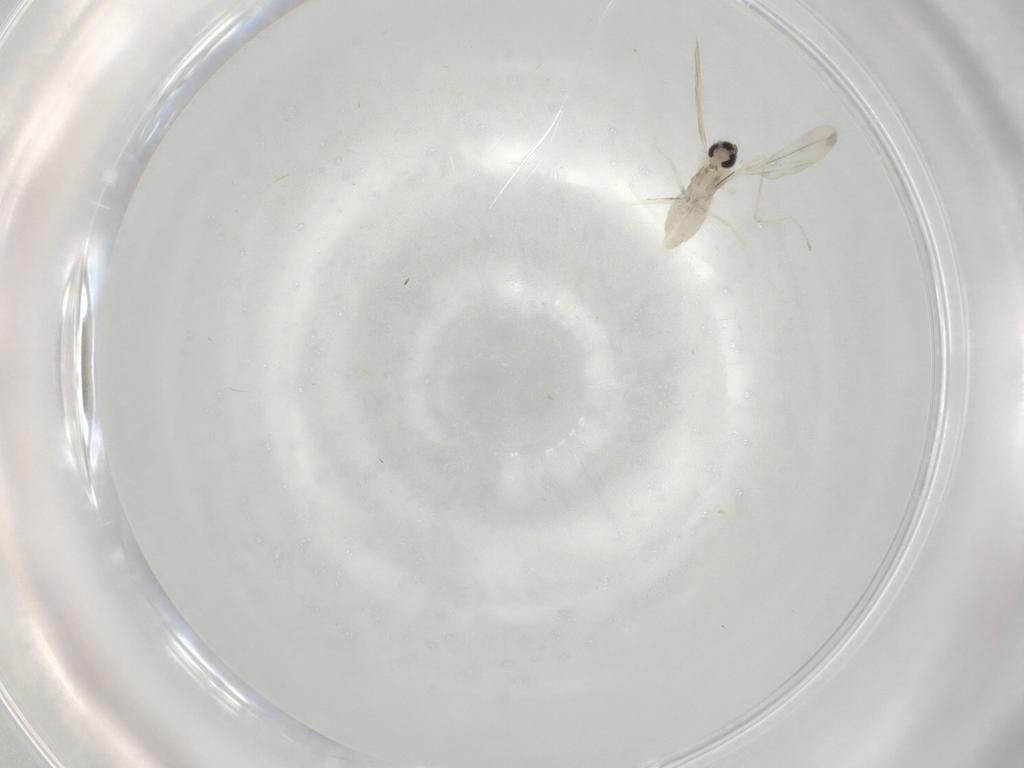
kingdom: Animalia
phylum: Arthropoda
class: Insecta
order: Diptera
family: Cecidomyiidae
